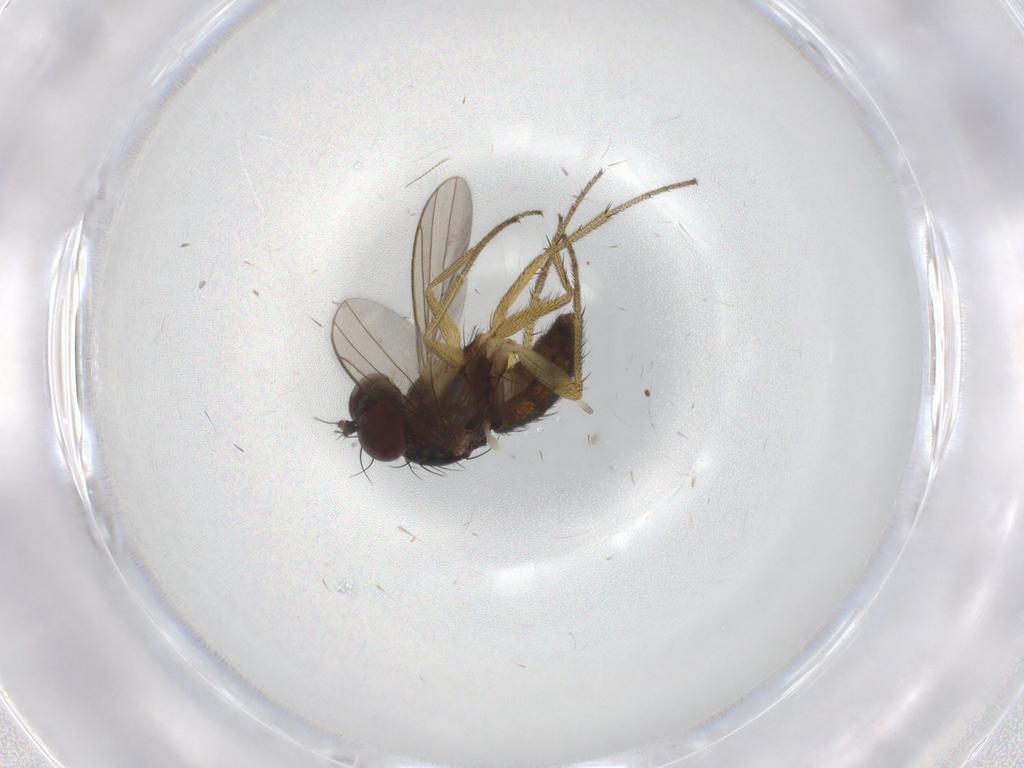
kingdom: Animalia
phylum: Arthropoda
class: Insecta
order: Diptera
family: Chironomidae
